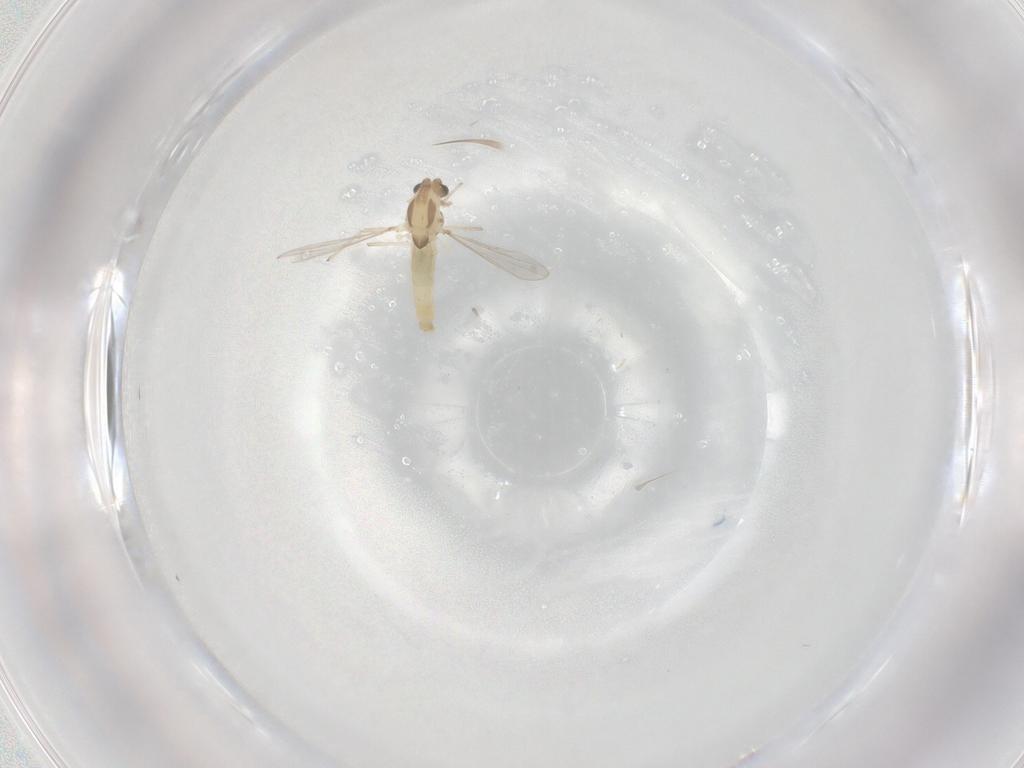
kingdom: Animalia
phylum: Arthropoda
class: Insecta
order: Diptera
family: Chironomidae
